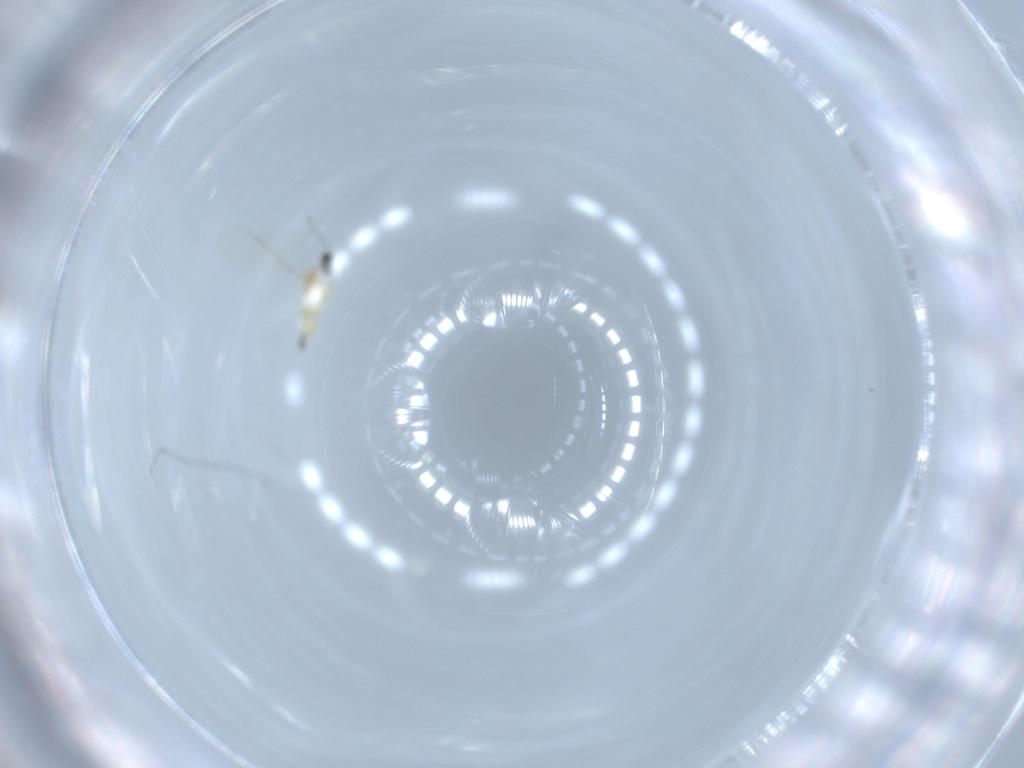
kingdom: Animalia
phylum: Arthropoda
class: Insecta
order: Diptera
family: Cecidomyiidae
